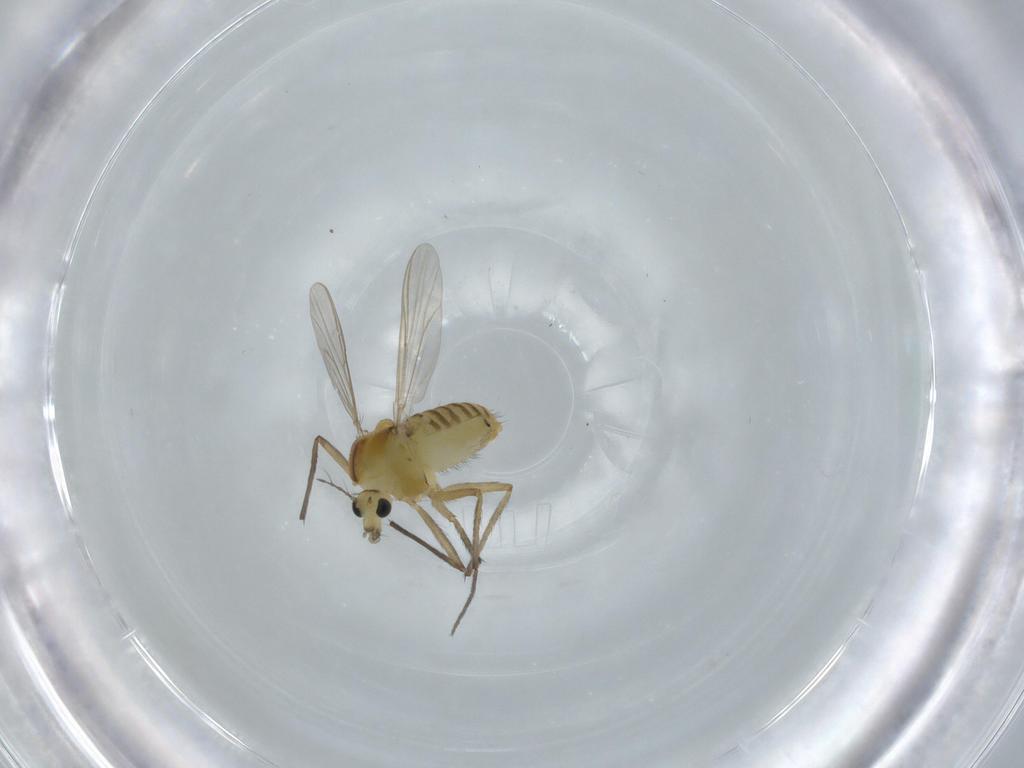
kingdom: Animalia
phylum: Arthropoda
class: Insecta
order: Diptera
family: Chironomidae
